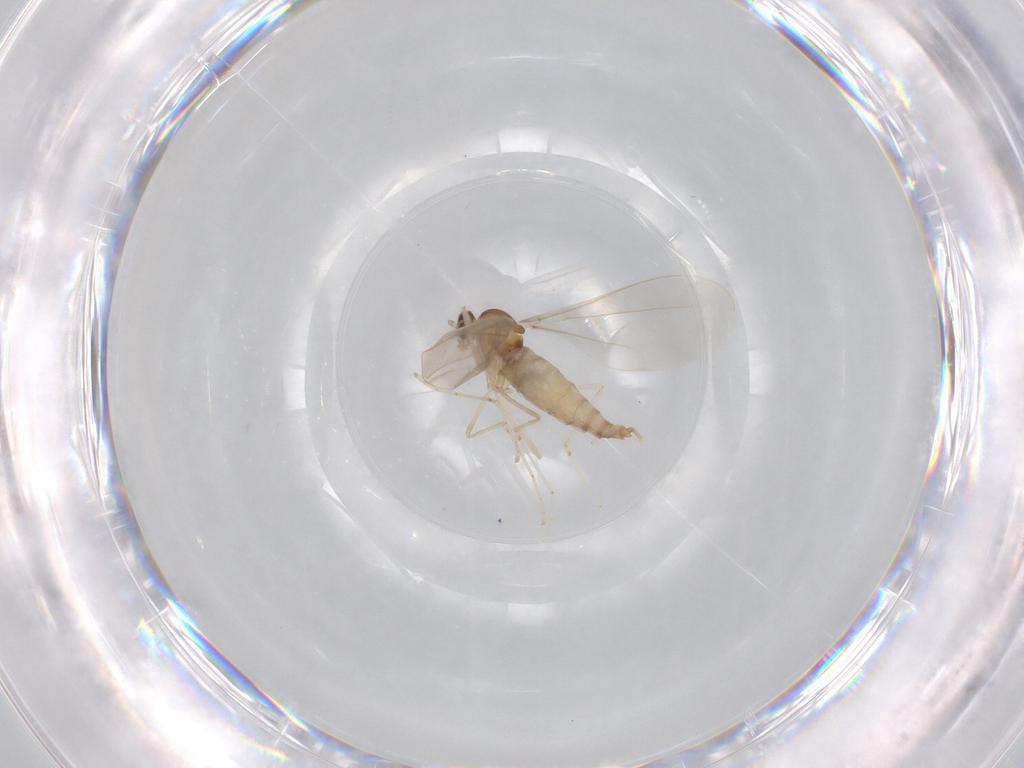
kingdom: Animalia
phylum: Arthropoda
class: Insecta
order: Diptera
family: Cecidomyiidae
